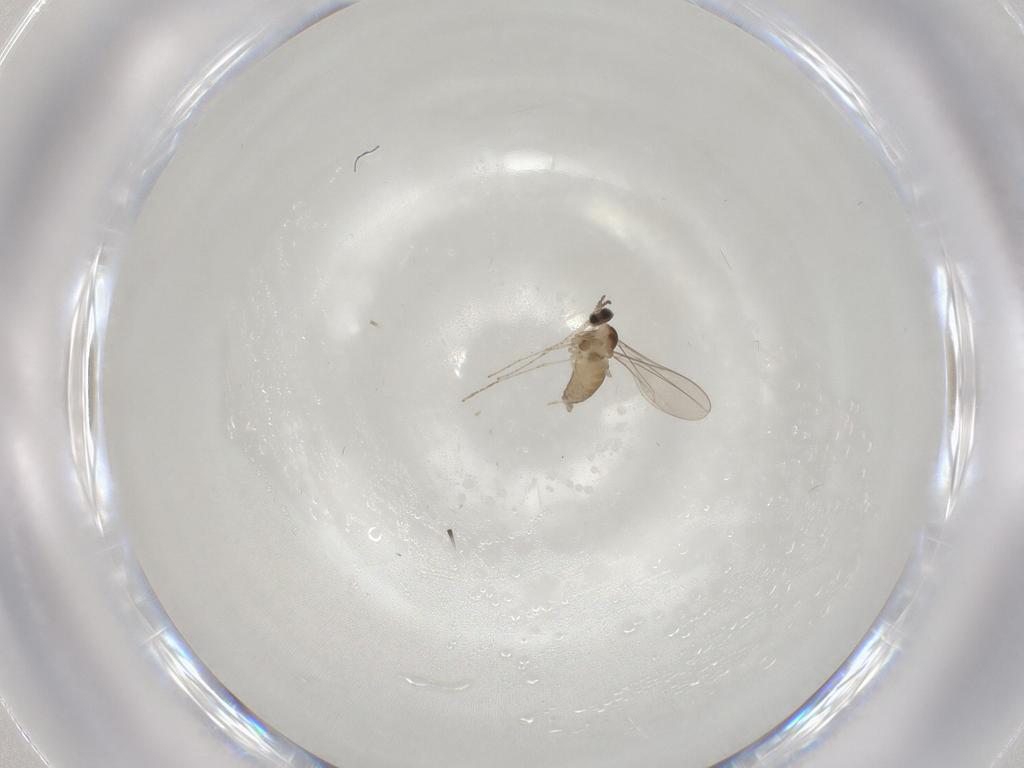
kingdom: Animalia
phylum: Arthropoda
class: Insecta
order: Diptera
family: Cecidomyiidae
